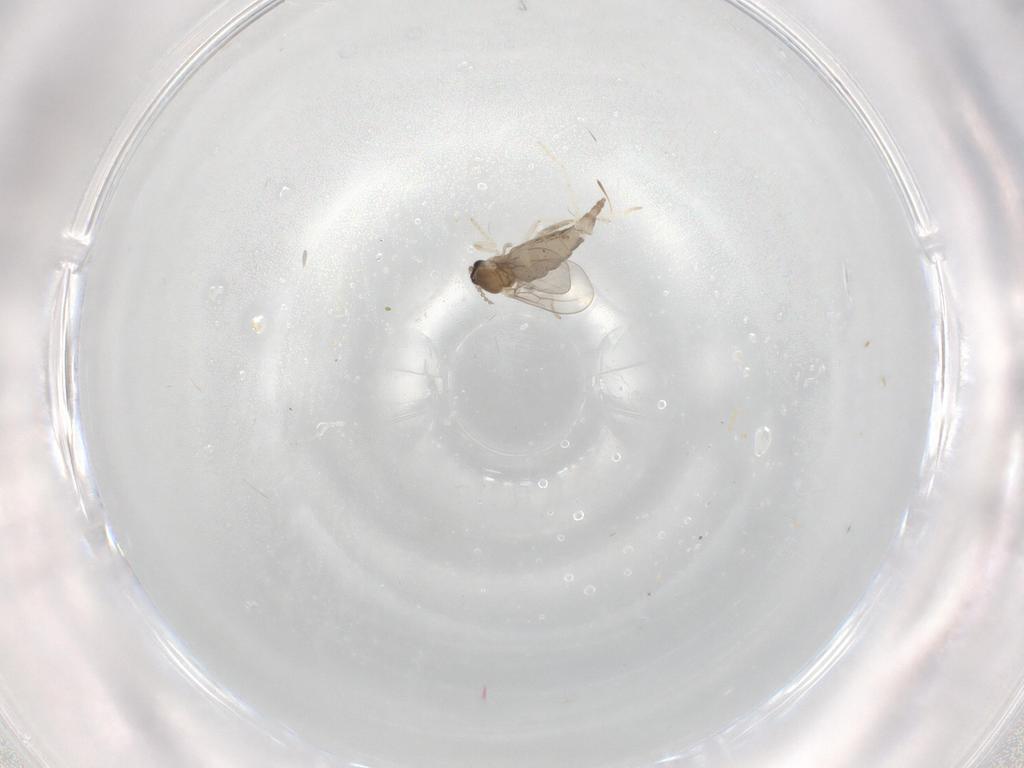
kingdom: Animalia
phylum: Arthropoda
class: Insecta
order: Diptera
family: Cecidomyiidae
